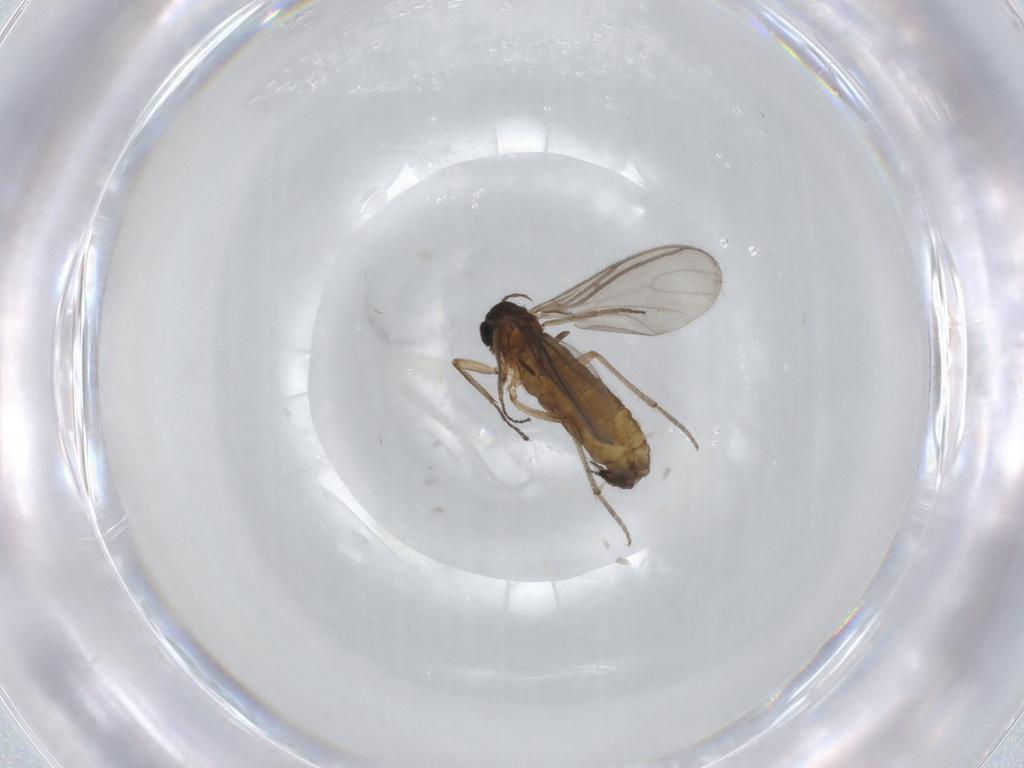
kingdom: Animalia
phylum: Arthropoda
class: Insecta
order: Diptera
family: Sciaridae
